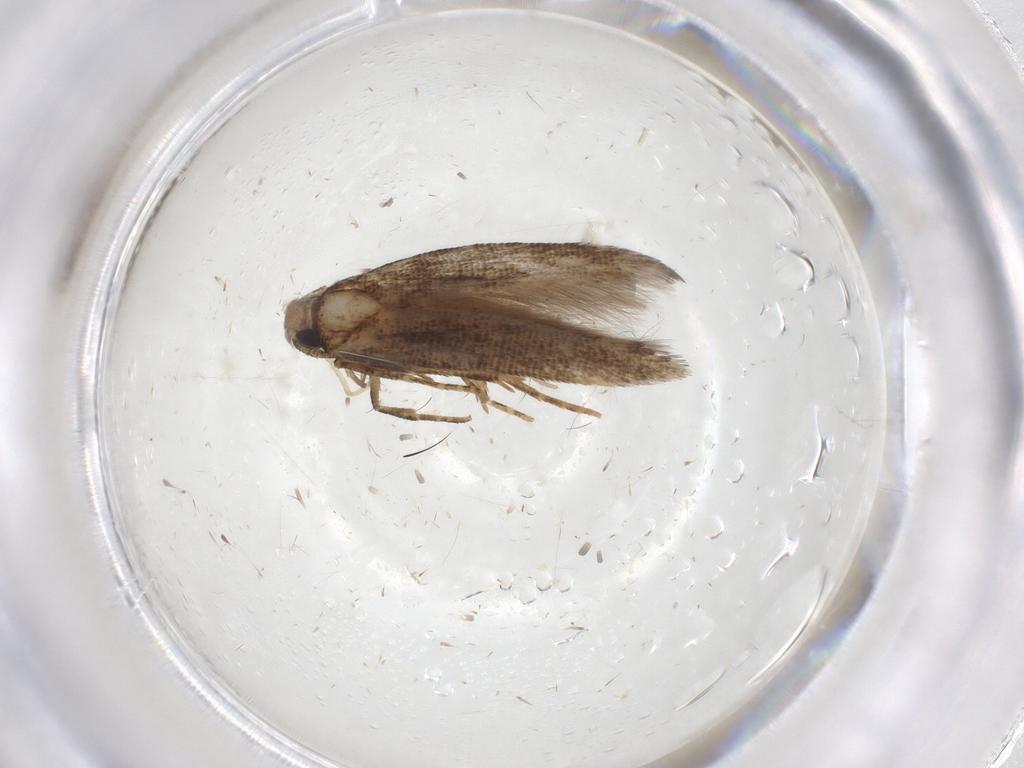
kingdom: Animalia
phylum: Arthropoda
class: Insecta
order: Lepidoptera
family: Cosmopterigidae
